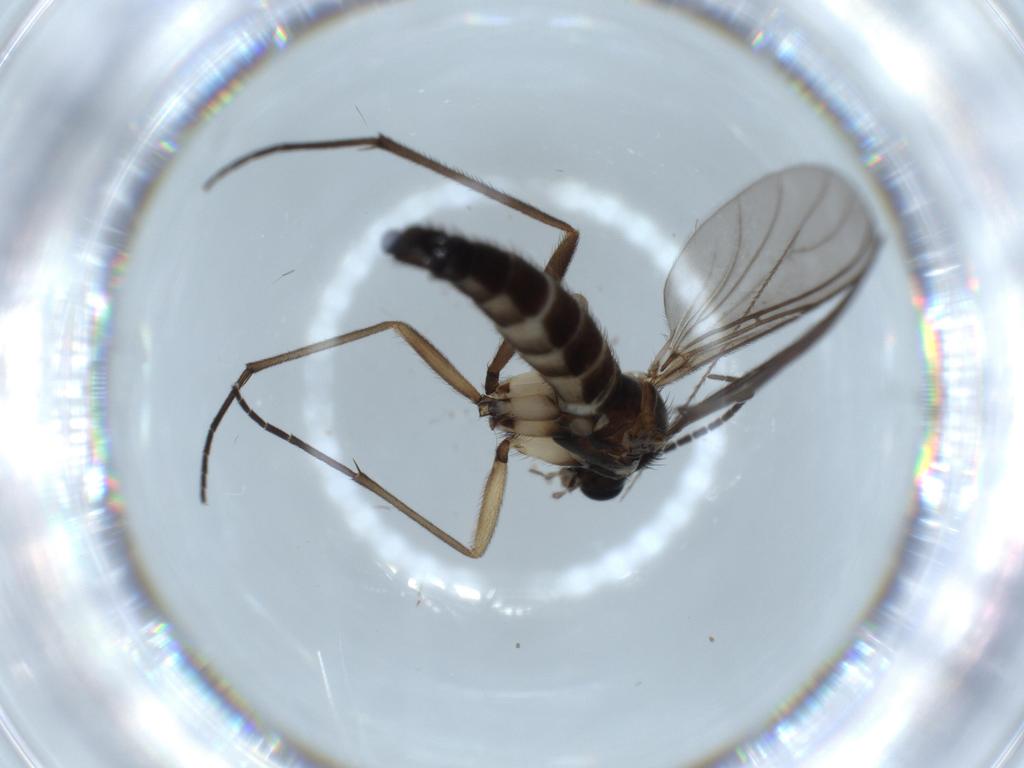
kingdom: Animalia
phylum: Arthropoda
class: Insecta
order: Diptera
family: Sciaridae
